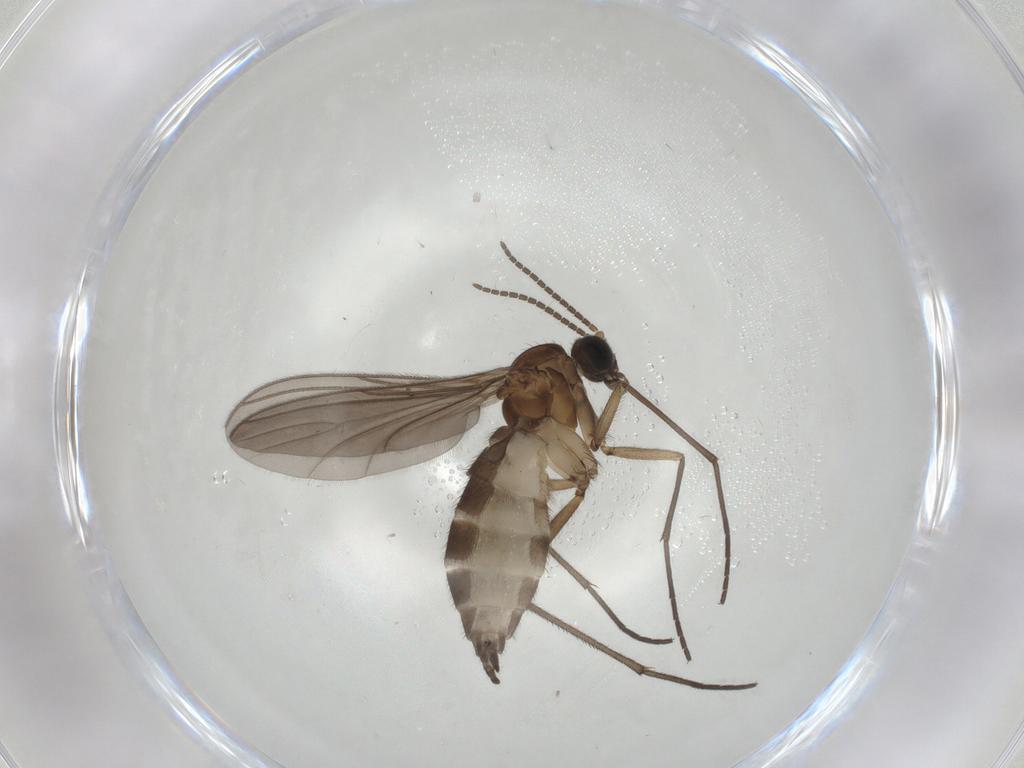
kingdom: Animalia
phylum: Arthropoda
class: Insecta
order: Diptera
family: Sciaridae
